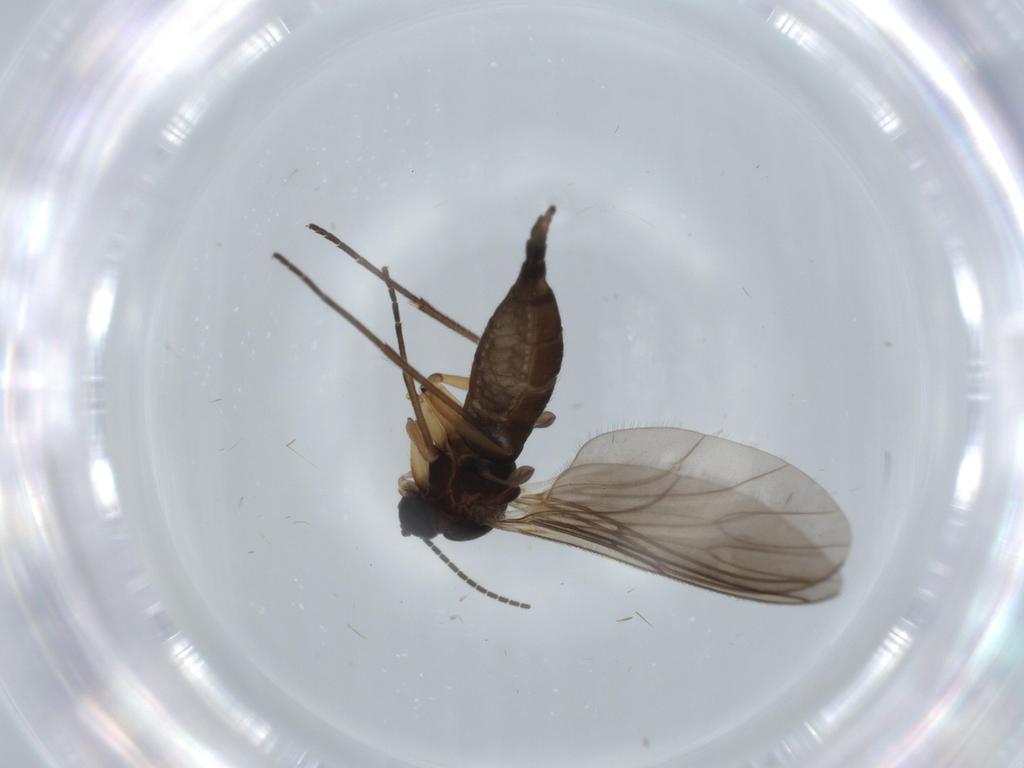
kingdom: Animalia
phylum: Arthropoda
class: Insecta
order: Diptera
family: Sciaridae
